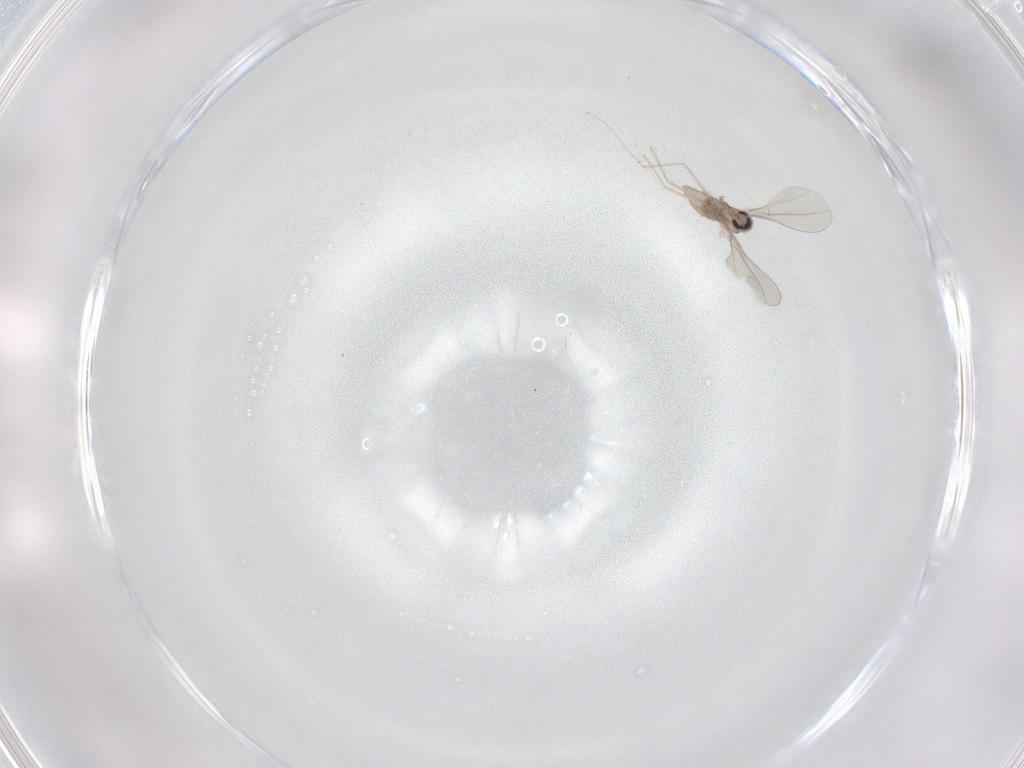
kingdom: Animalia
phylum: Arthropoda
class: Insecta
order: Diptera
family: Cecidomyiidae
